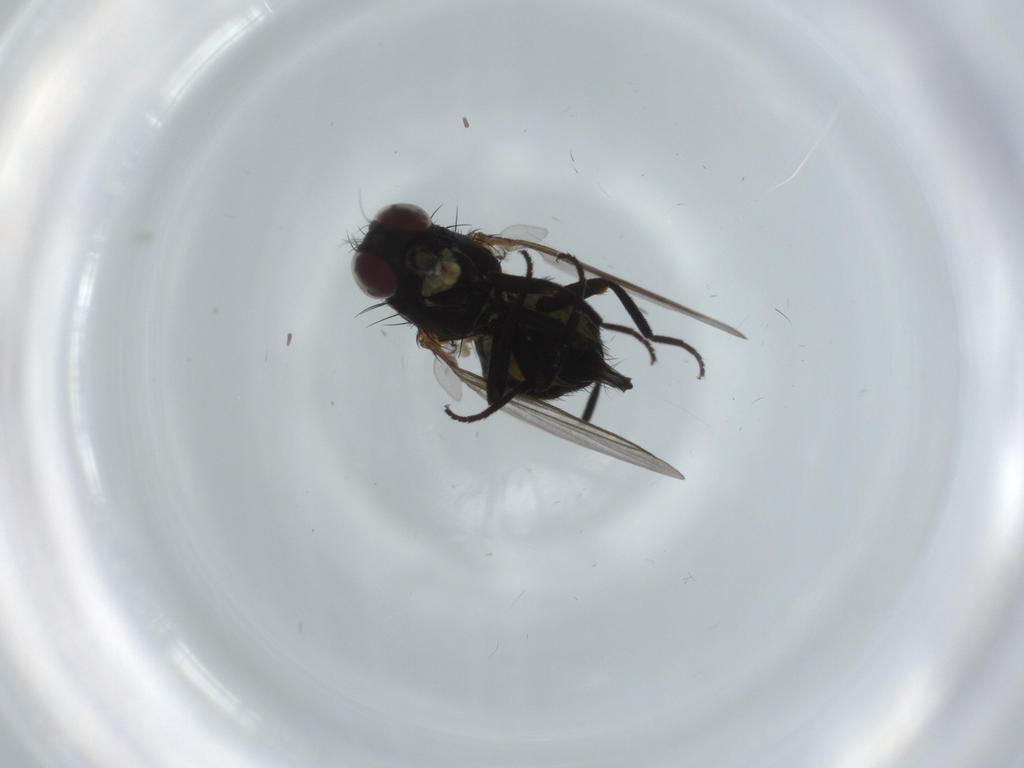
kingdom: Animalia
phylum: Arthropoda
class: Insecta
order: Diptera
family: Agromyzidae
